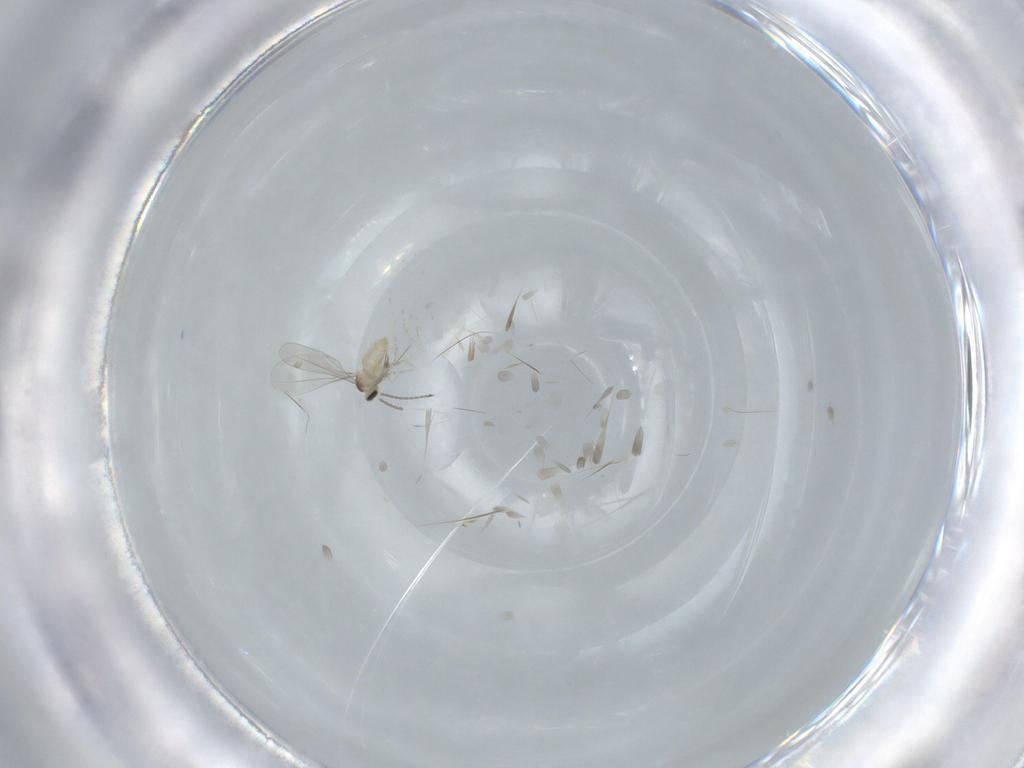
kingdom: Animalia
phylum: Arthropoda
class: Insecta
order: Diptera
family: Cecidomyiidae
